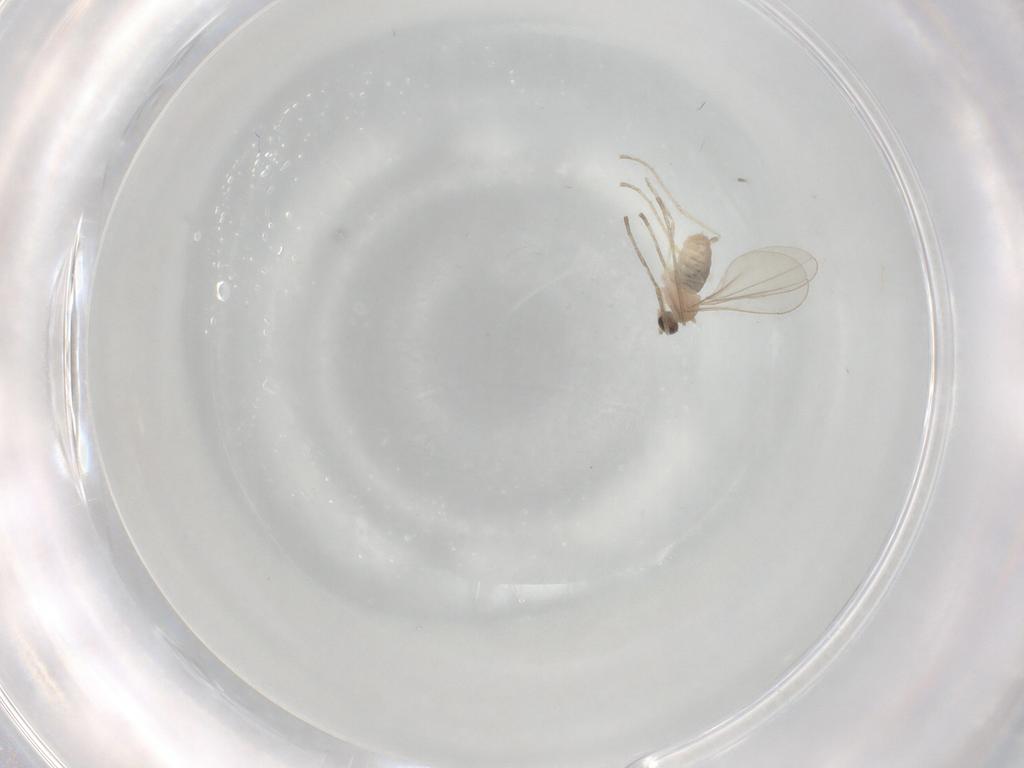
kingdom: Animalia
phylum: Arthropoda
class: Insecta
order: Diptera
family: Cecidomyiidae
